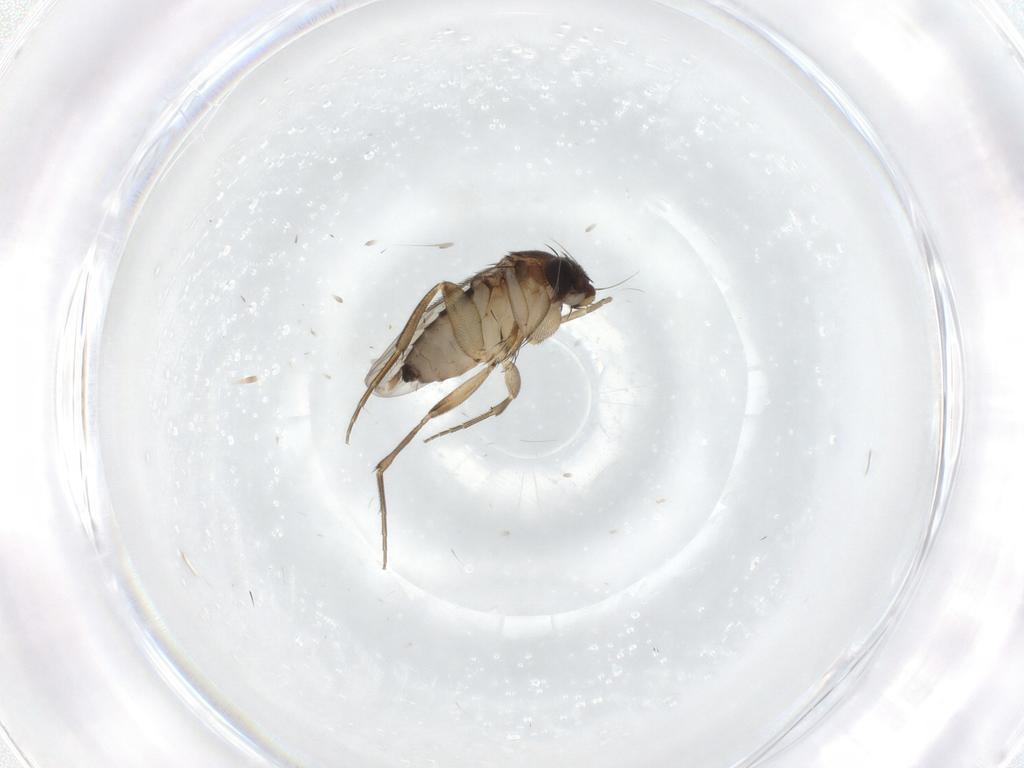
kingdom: Animalia
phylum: Arthropoda
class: Insecta
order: Diptera
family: Phoridae
